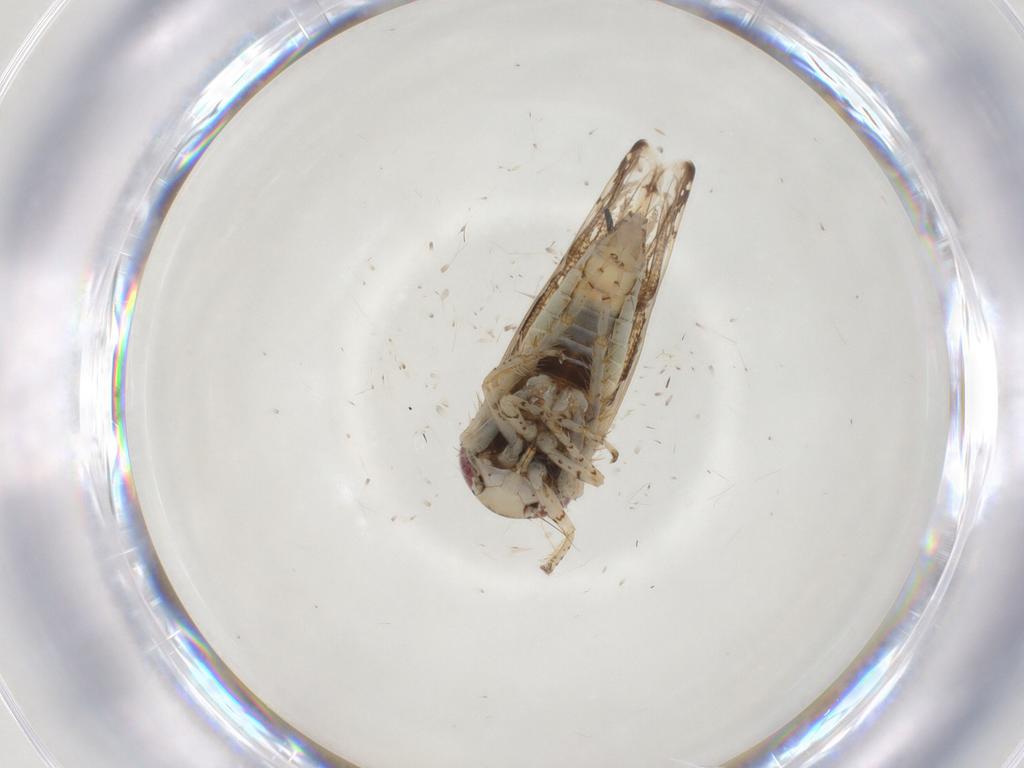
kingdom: Animalia
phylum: Arthropoda
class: Insecta
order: Hemiptera
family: Cicadellidae
